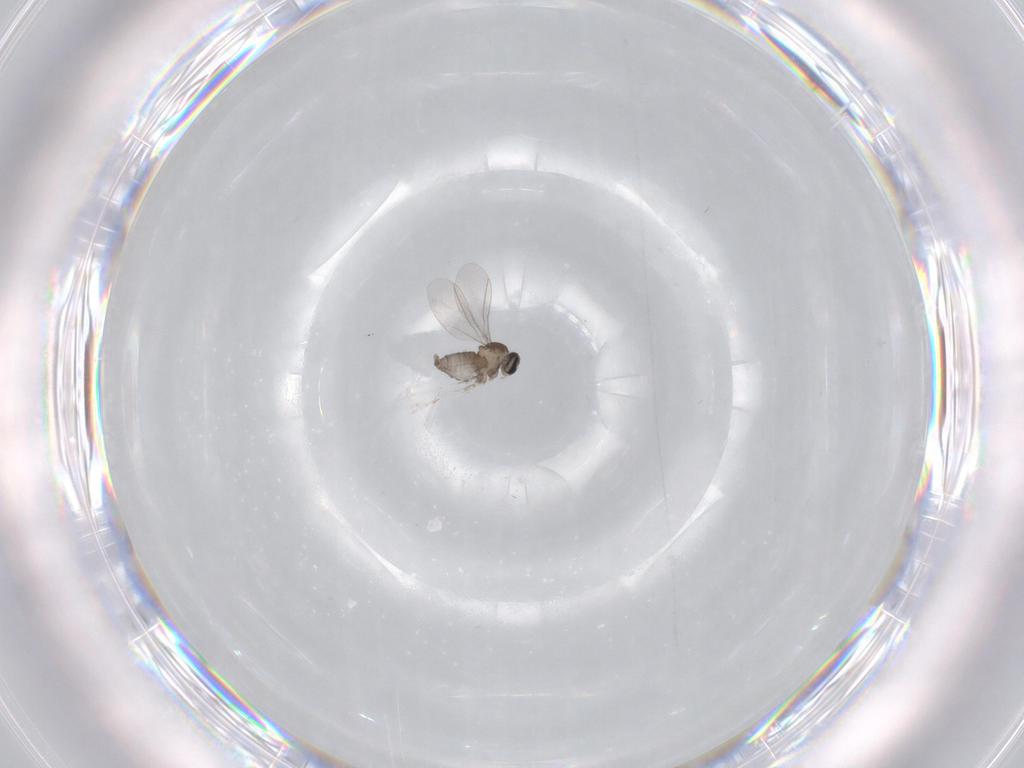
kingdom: Animalia
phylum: Arthropoda
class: Insecta
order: Diptera
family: Cecidomyiidae
